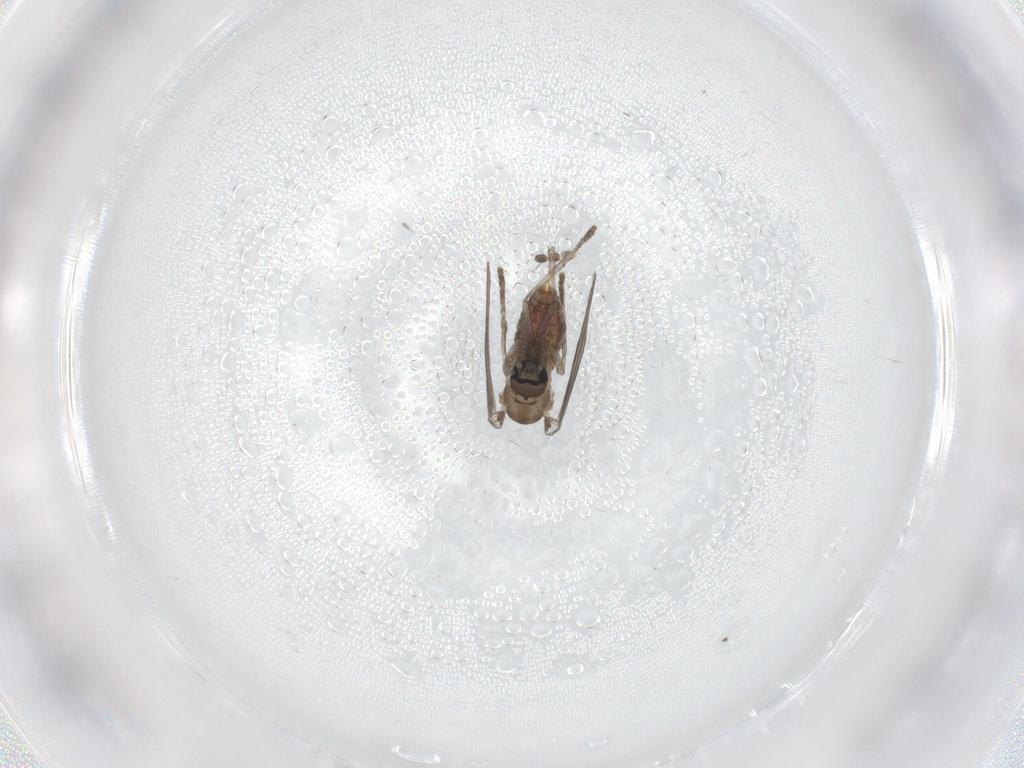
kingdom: Animalia
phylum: Arthropoda
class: Insecta
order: Diptera
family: Psychodidae
